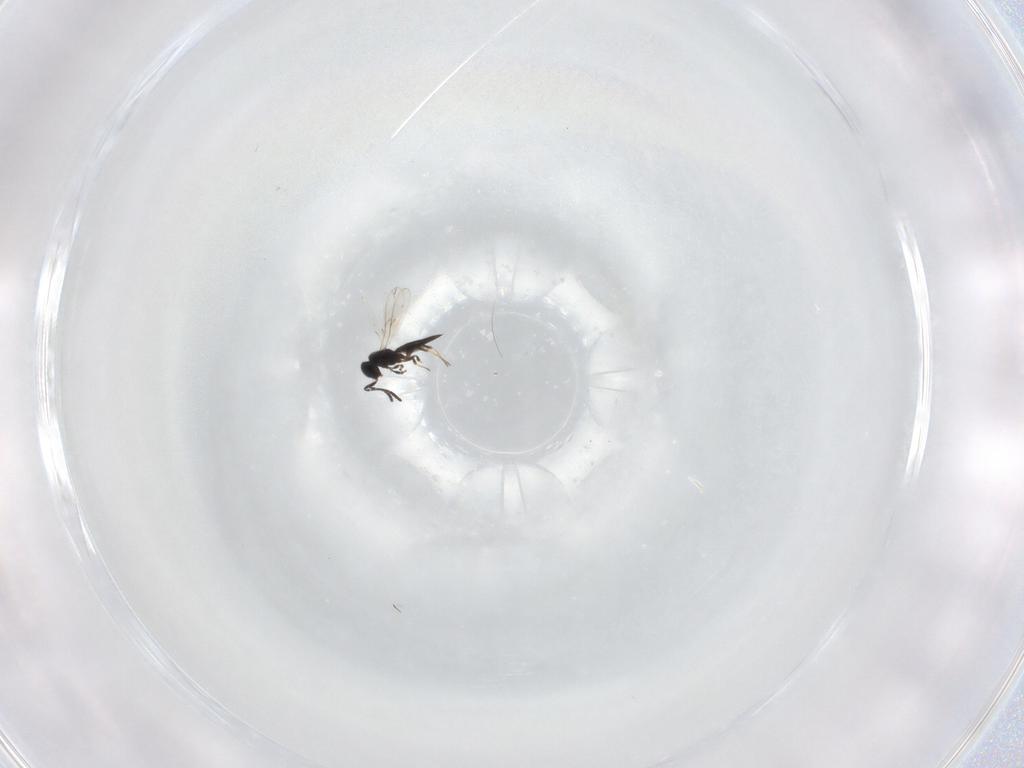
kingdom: Animalia
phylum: Arthropoda
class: Insecta
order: Hymenoptera
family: Scelionidae
